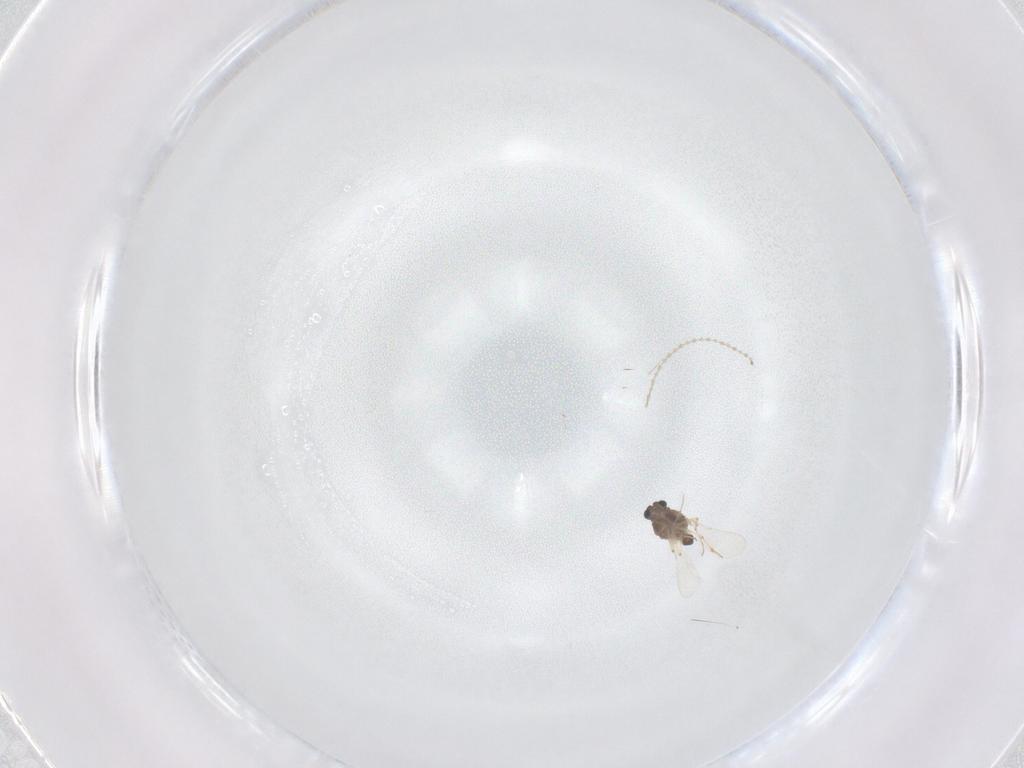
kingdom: Animalia
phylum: Arthropoda
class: Insecta
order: Diptera
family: Chironomidae
